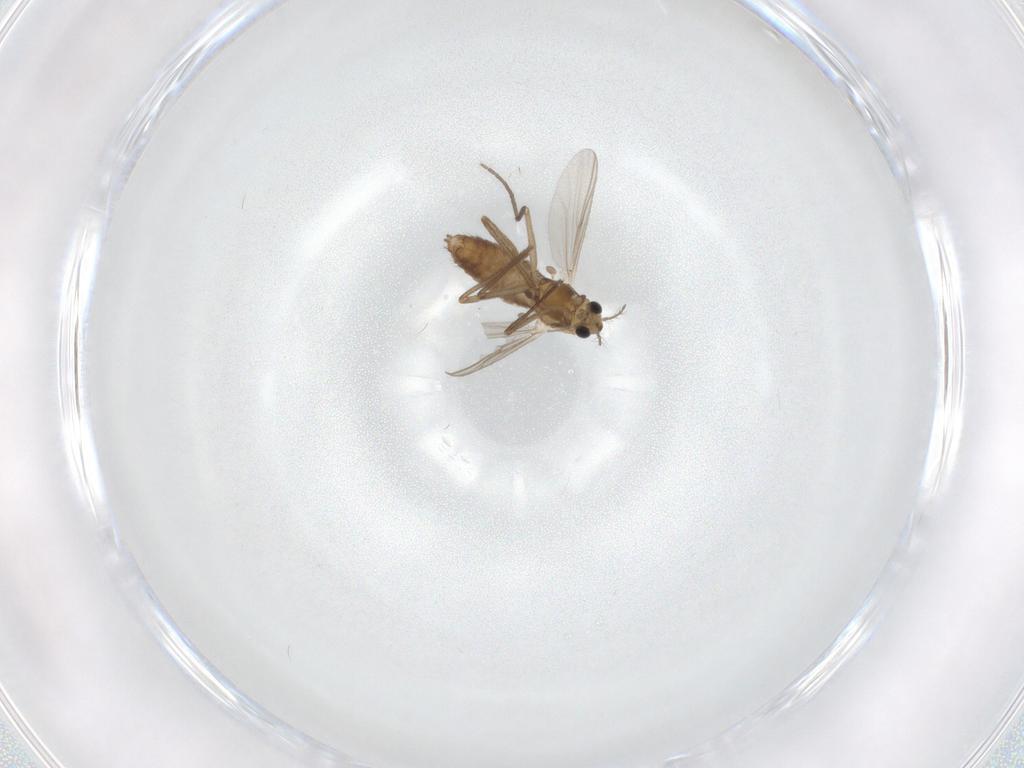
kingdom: Animalia
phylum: Arthropoda
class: Insecta
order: Diptera
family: Chironomidae
